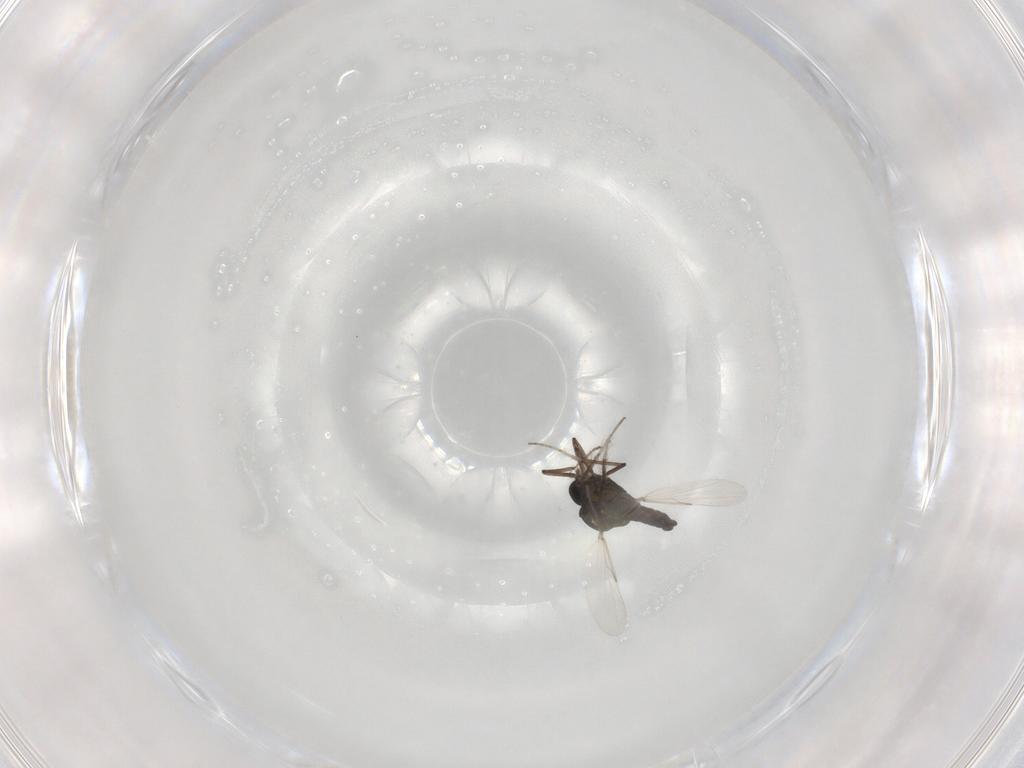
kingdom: Animalia
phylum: Arthropoda
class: Insecta
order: Diptera
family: Ceratopogonidae
